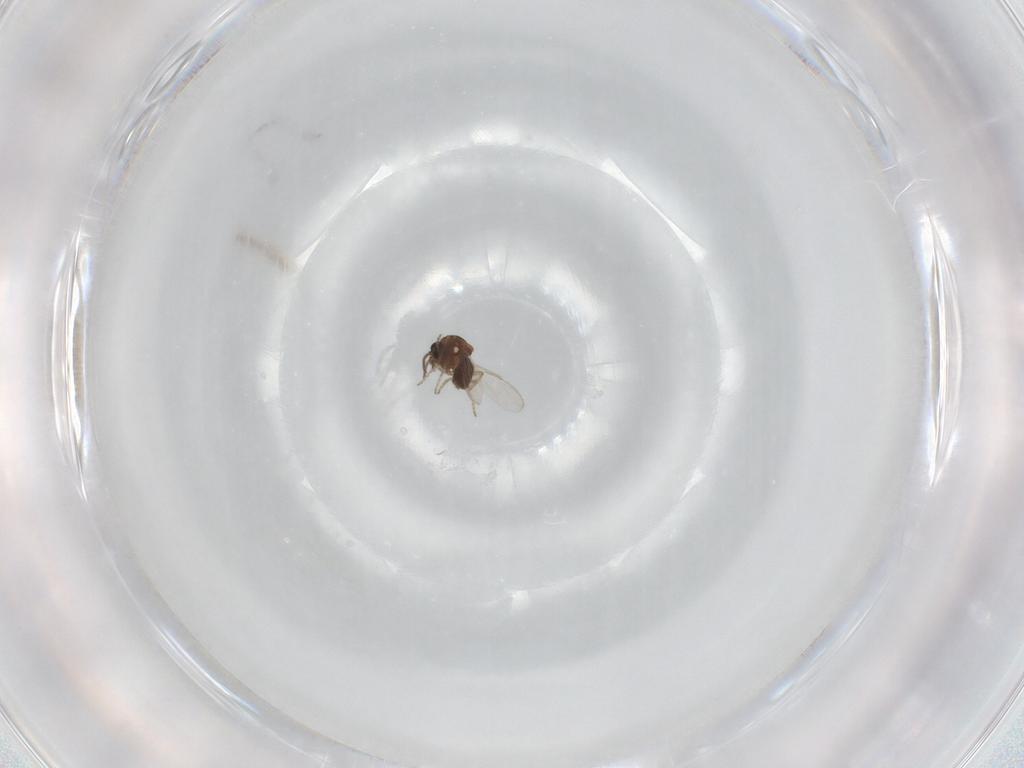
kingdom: Animalia
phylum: Arthropoda
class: Insecta
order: Diptera
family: Ceratopogonidae
